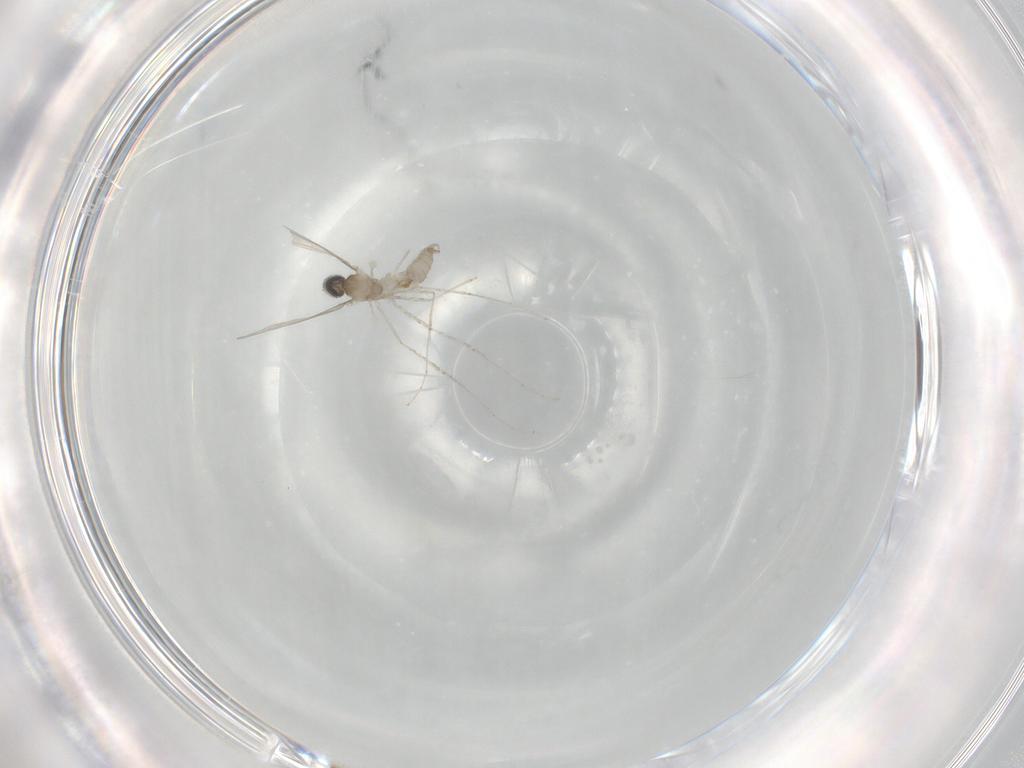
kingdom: Animalia
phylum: Arthropoda
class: Insecta
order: Diptera
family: Cecidomyiidae
